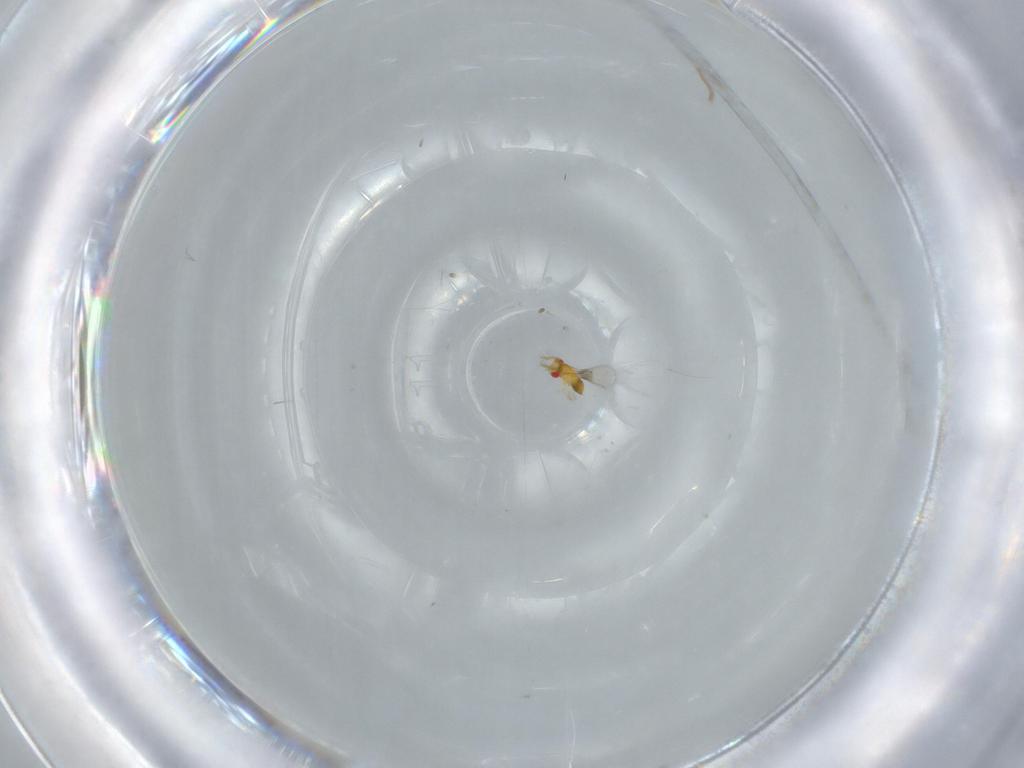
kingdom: Animalia
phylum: Arthropoda
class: Insecta
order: Hymenoptera
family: Trichogrammatidae
